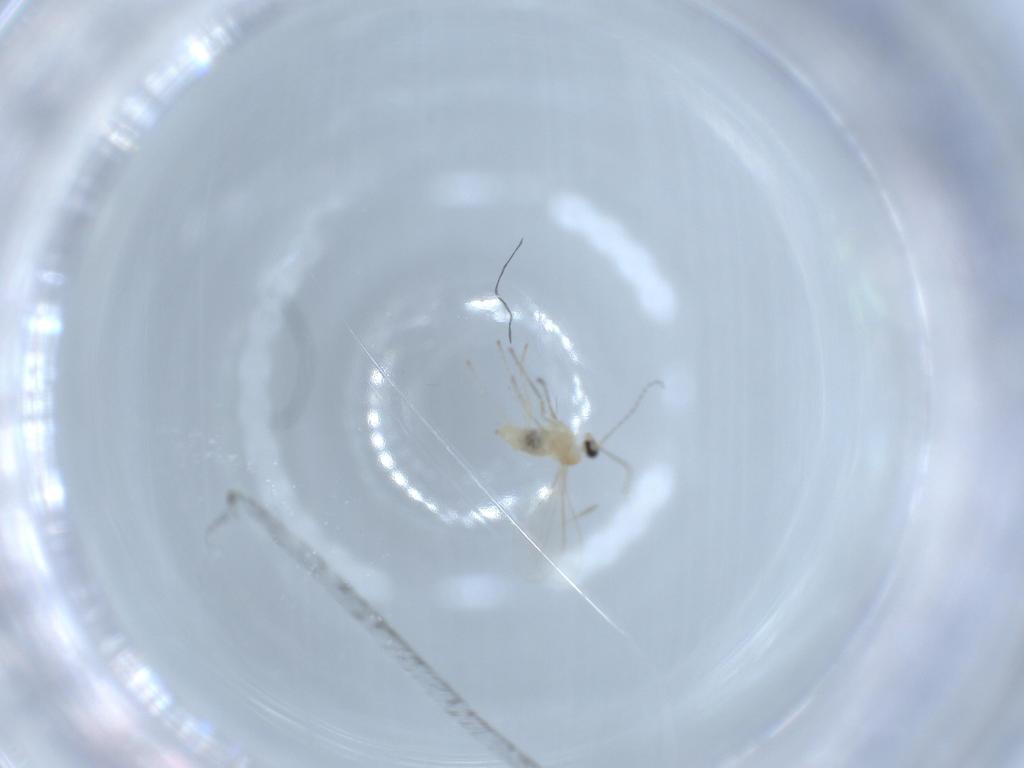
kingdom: Animalia
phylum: Arthropoda
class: Insecta
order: Diptera
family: Cecidomyiidae
